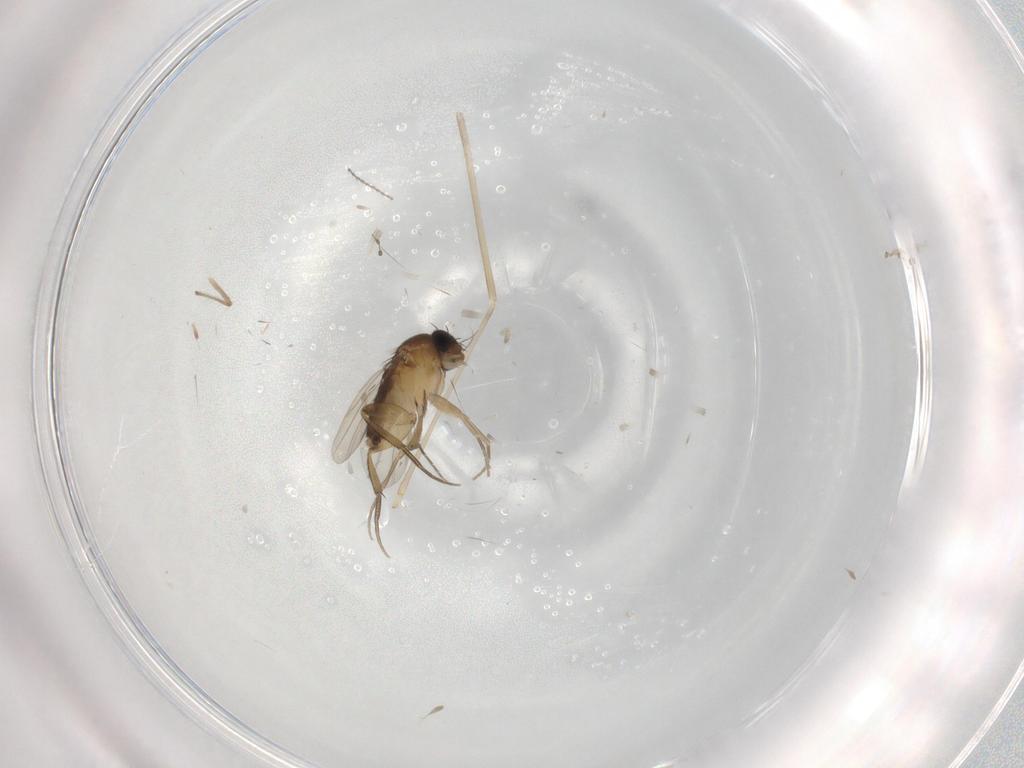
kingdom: Animalia
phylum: Arthropoda
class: Insecta
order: Diptera
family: Phoridae
